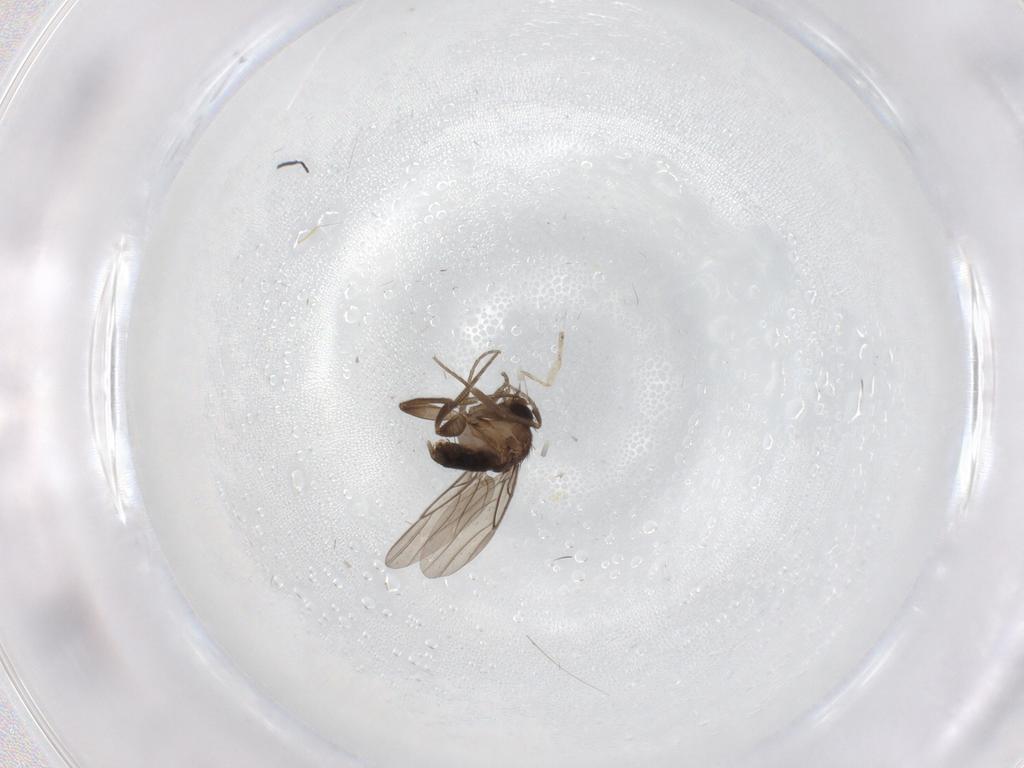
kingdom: Animalia
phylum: Arthropoda
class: Insecta
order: Diptera
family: Phoridae
